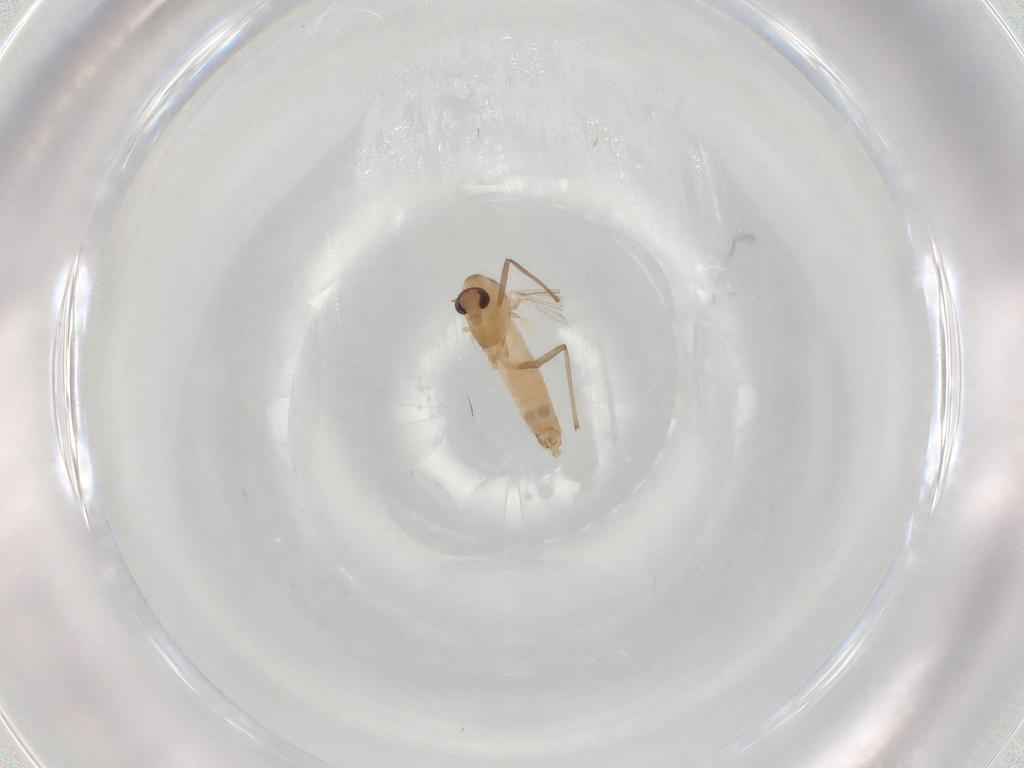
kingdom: Animalia
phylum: Arthropoda
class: Insecta
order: Diptera
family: Chironomidae
